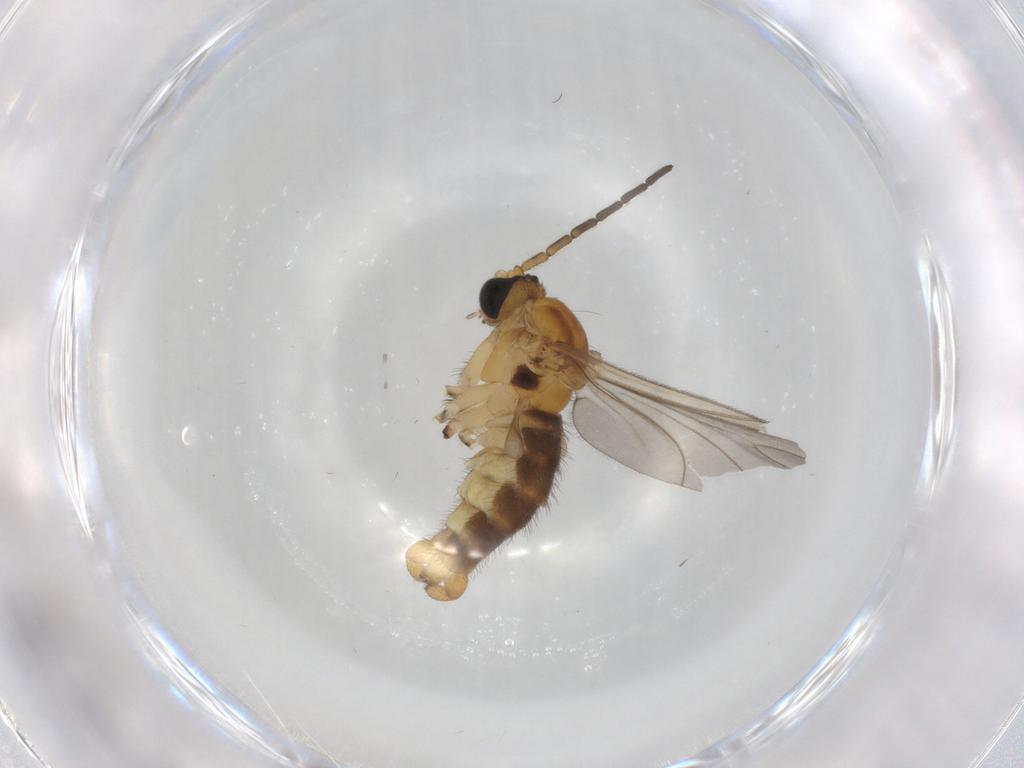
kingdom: Animalia
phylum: Arthropoda
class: Insecta
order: Diptera
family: Sciaridae
